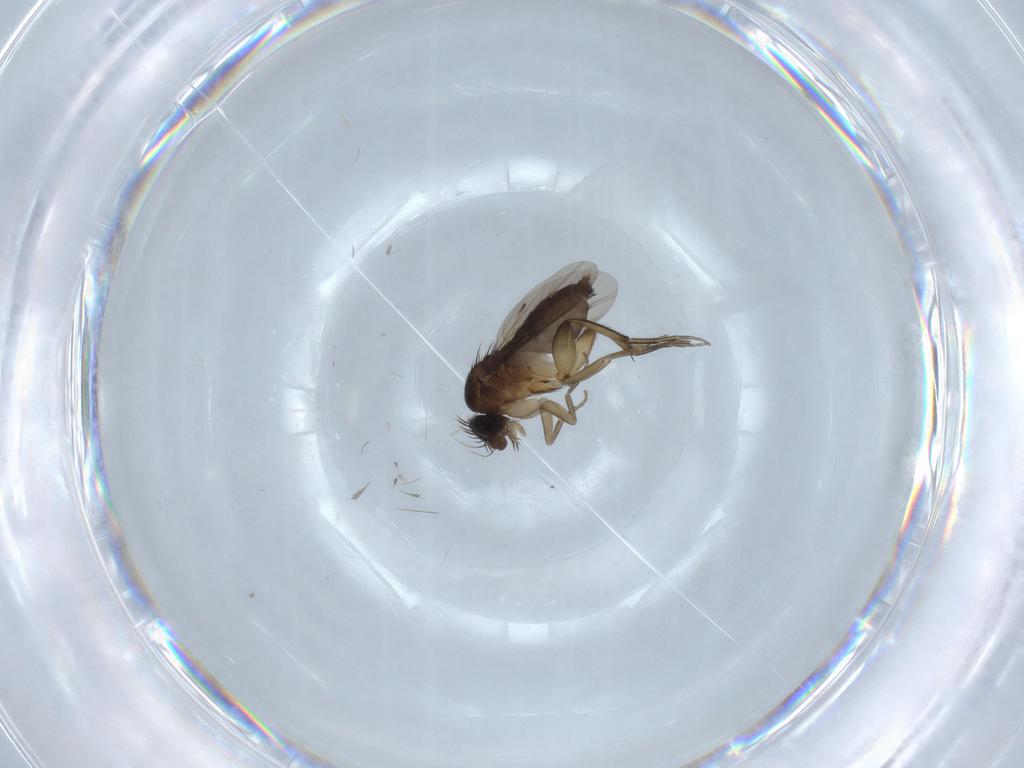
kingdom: Animalia
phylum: Arthropoda
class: Insecta
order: Diptera
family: Phoridae
